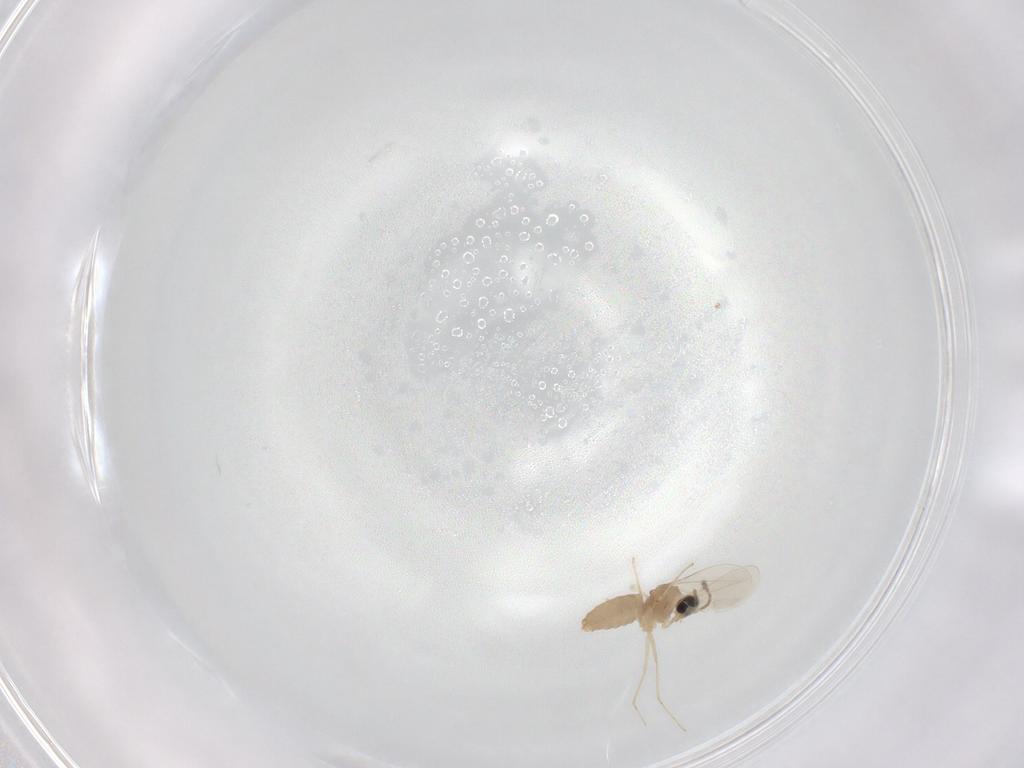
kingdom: Animalia
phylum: Arthropoda
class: Insecta
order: Diptera
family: Cecidomyiidae
